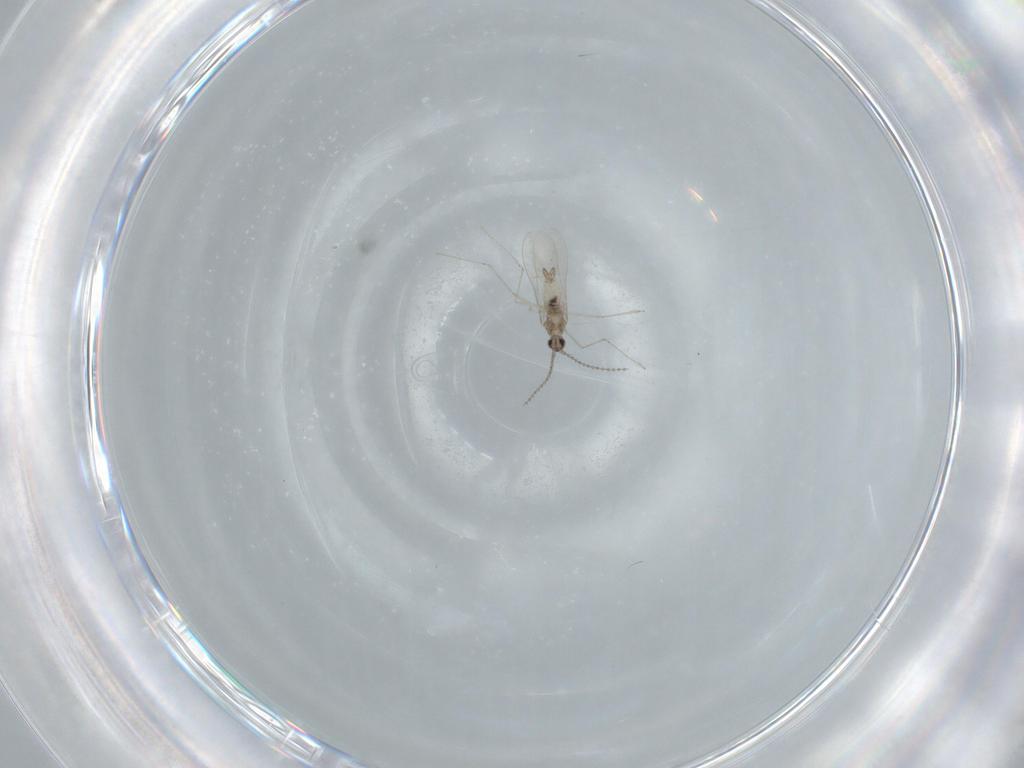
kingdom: Animalia
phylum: Arthropoda
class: Insecta
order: Diptera
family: Cecidomyiidae
